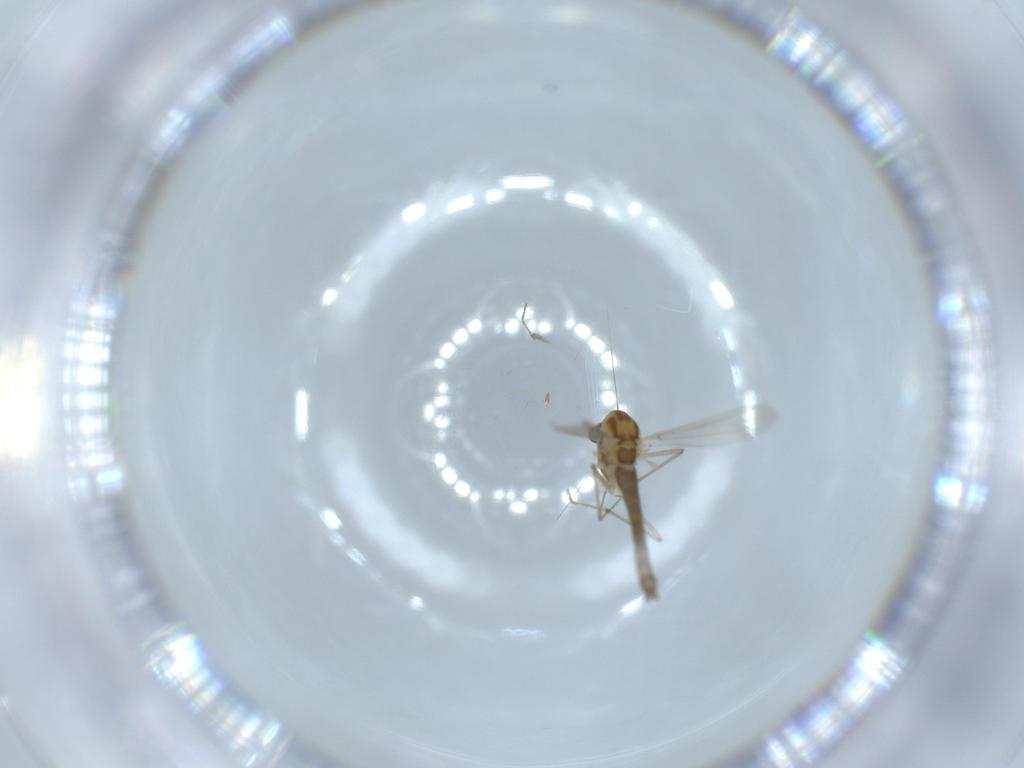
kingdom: Animalia
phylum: Arthropoda
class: Insecta
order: Diptera
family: Chironomidae
